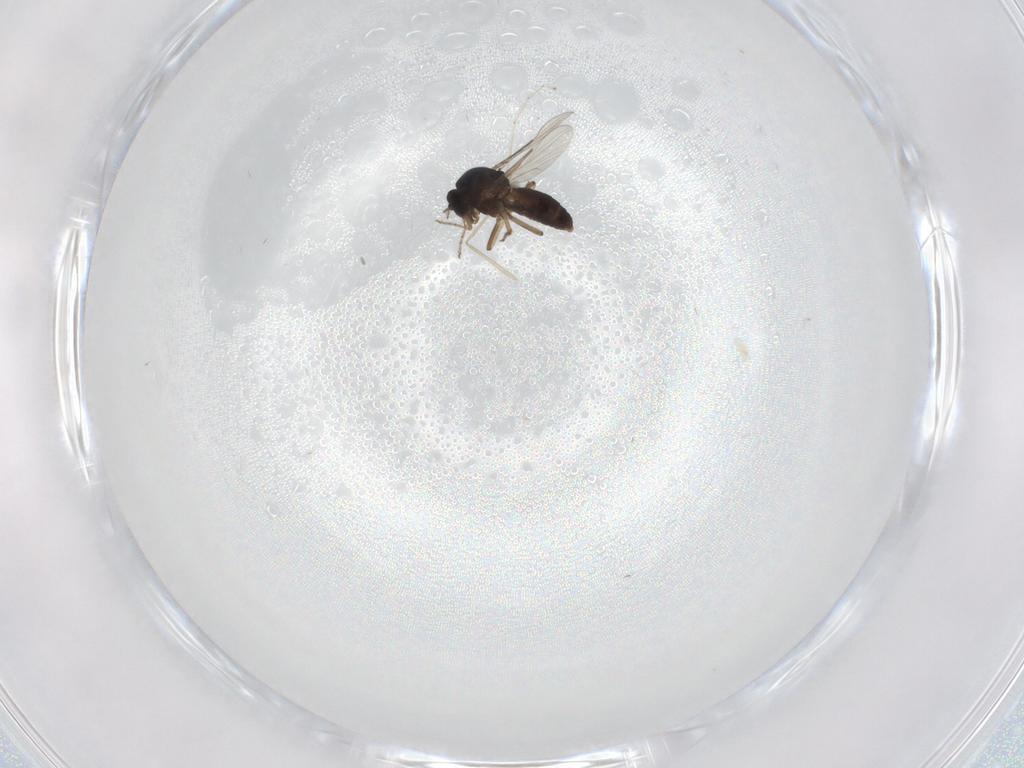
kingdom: Animalia
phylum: Arthropoda
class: Insecta
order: Diptera
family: Ceratopogonidae
